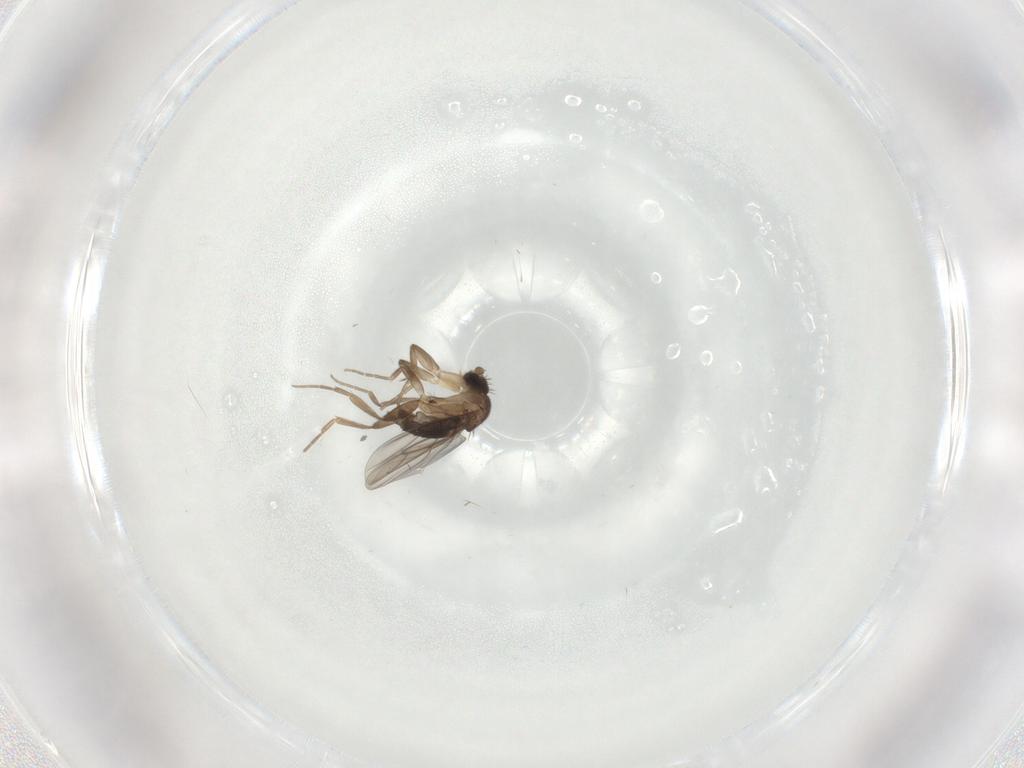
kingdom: Animalia
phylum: Arthropoda
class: Insecta
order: Diptera
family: Phoridae
